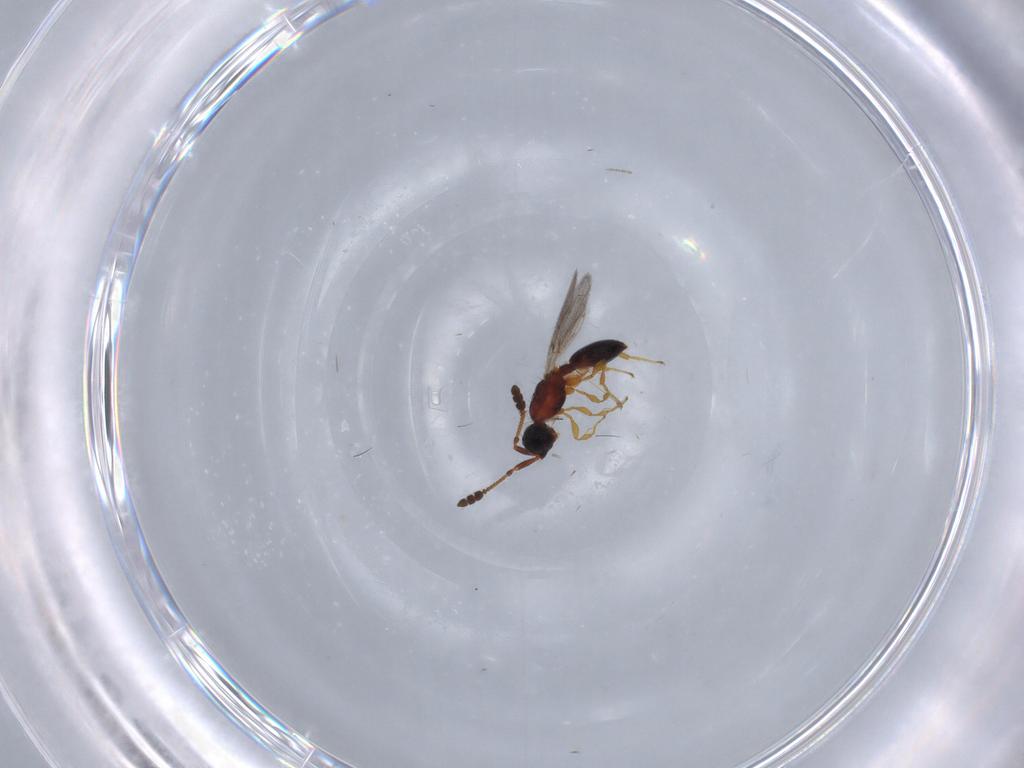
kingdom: Animalia
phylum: Arthropoda
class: Insecta
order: Hymenoptera
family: Diapriidae
